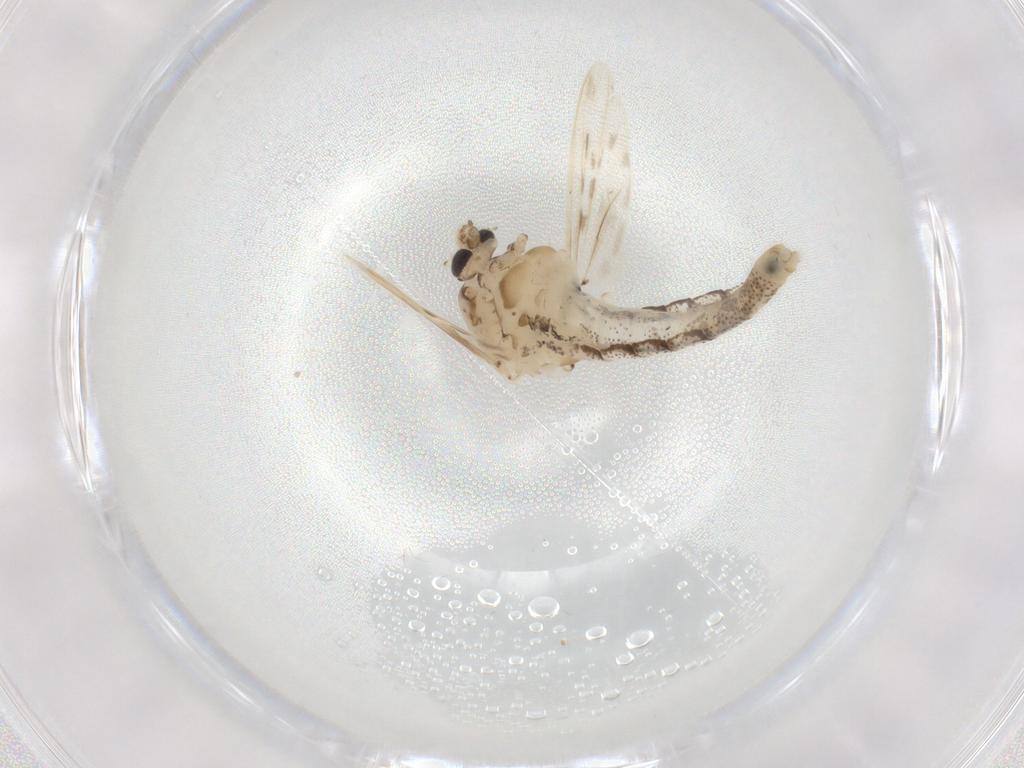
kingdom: Animalia
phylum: Arthropoda
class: Insecta
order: Diptera
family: Chaoboridae
